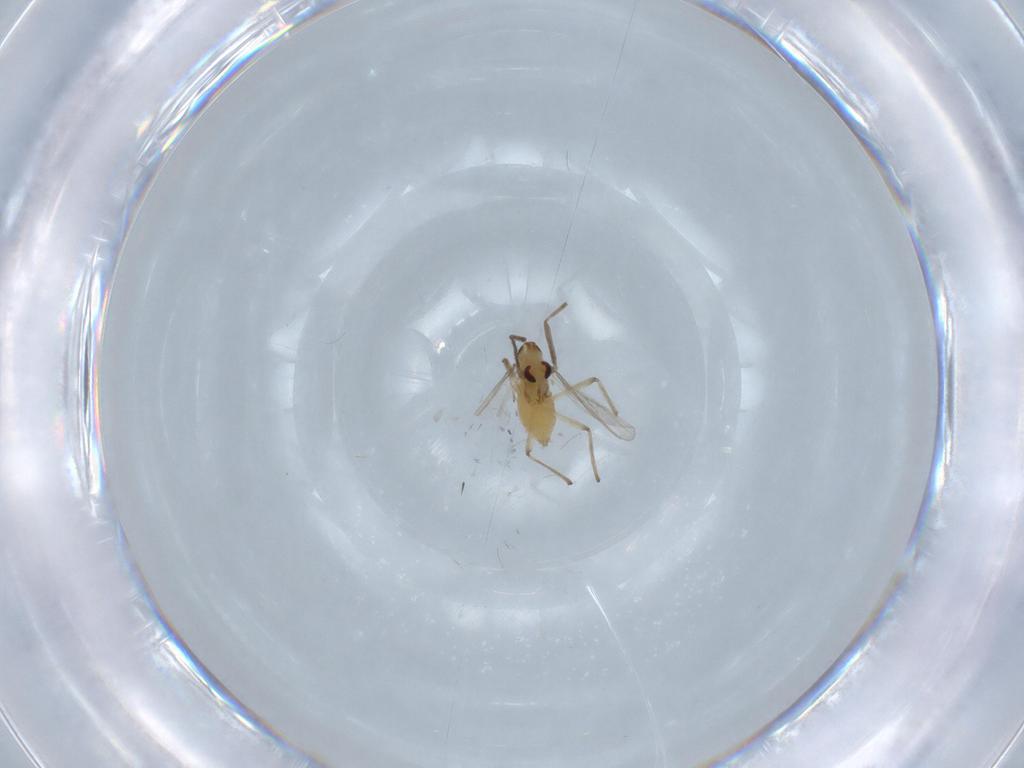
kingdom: Animalia
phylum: Arthropoda
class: Insecta
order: Diptera
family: Chironomidae
